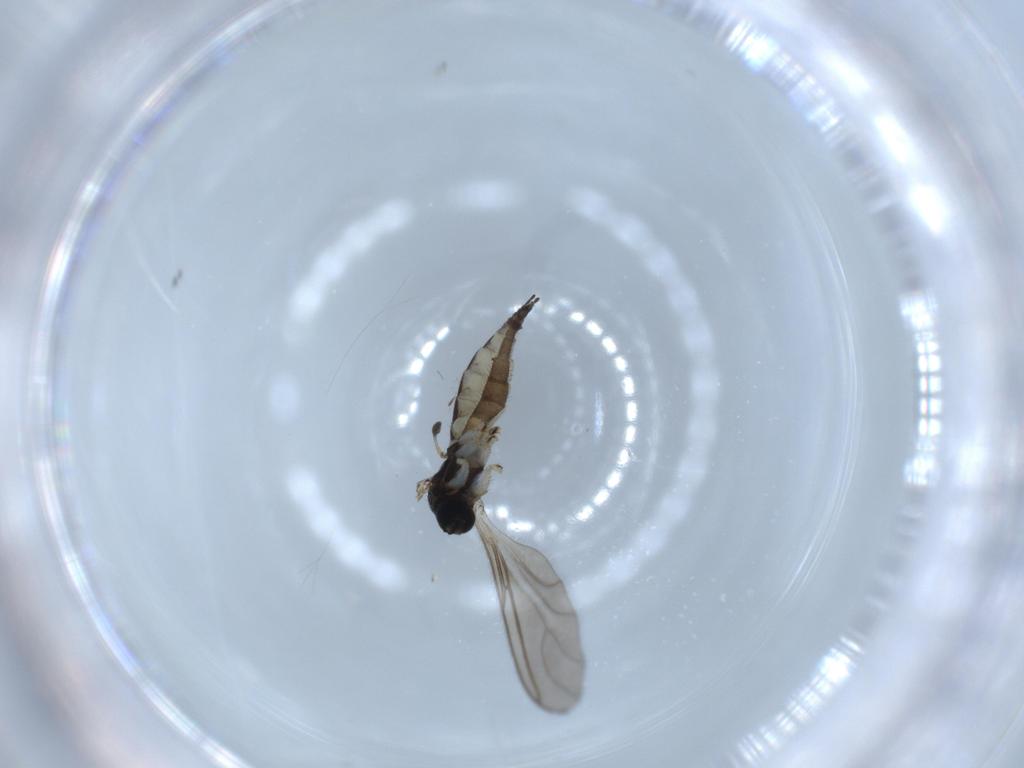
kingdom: Animalia
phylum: Arthropoda
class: Insecta
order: Diptera
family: Sciaridae
